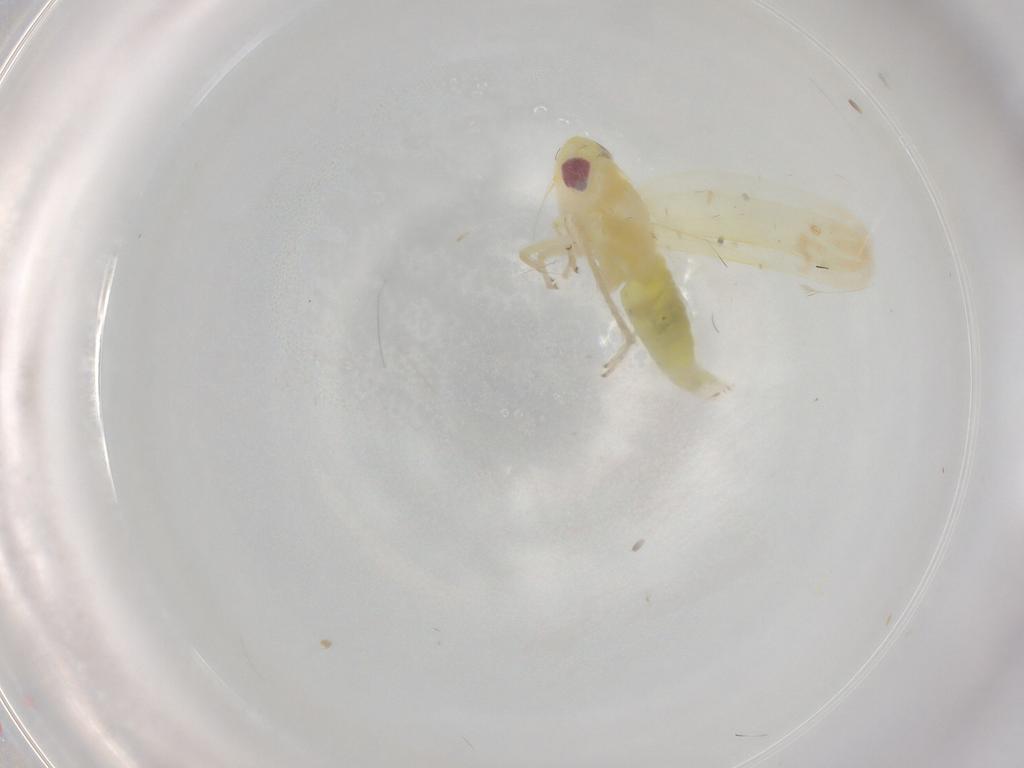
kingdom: Animalia
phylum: Arthropoda
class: Insecta
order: Hemiptera
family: Cicadellidae
